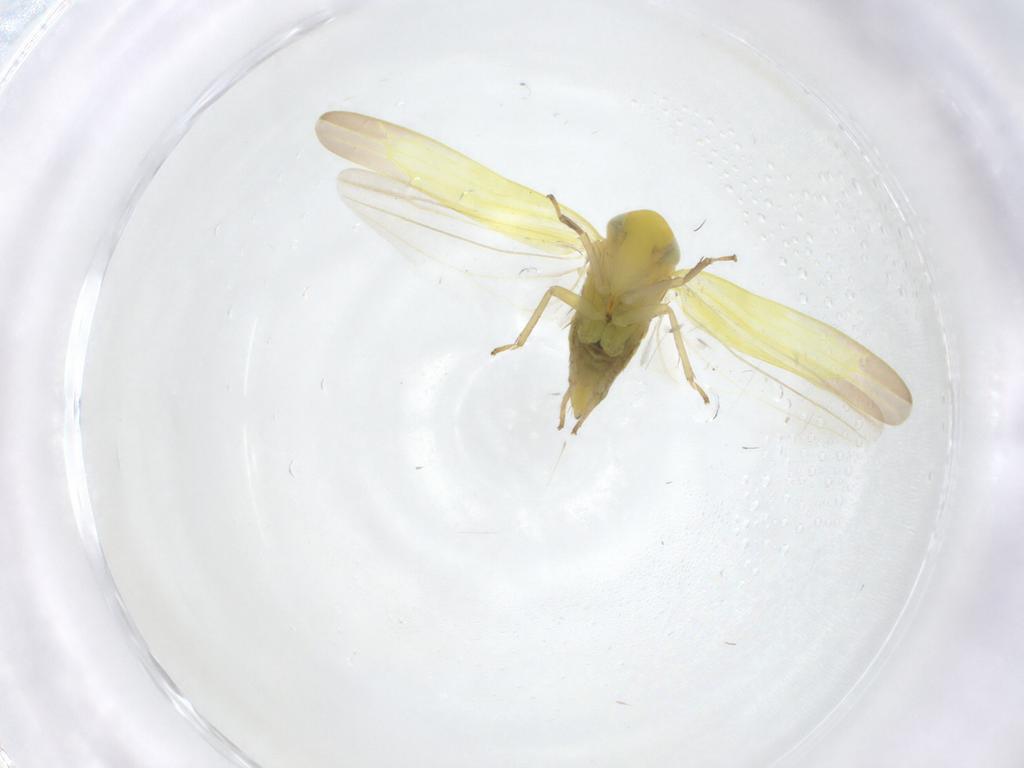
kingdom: Animalia
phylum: Arthropoda
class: Insecta
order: Hemiptera
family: Cicadellidae
